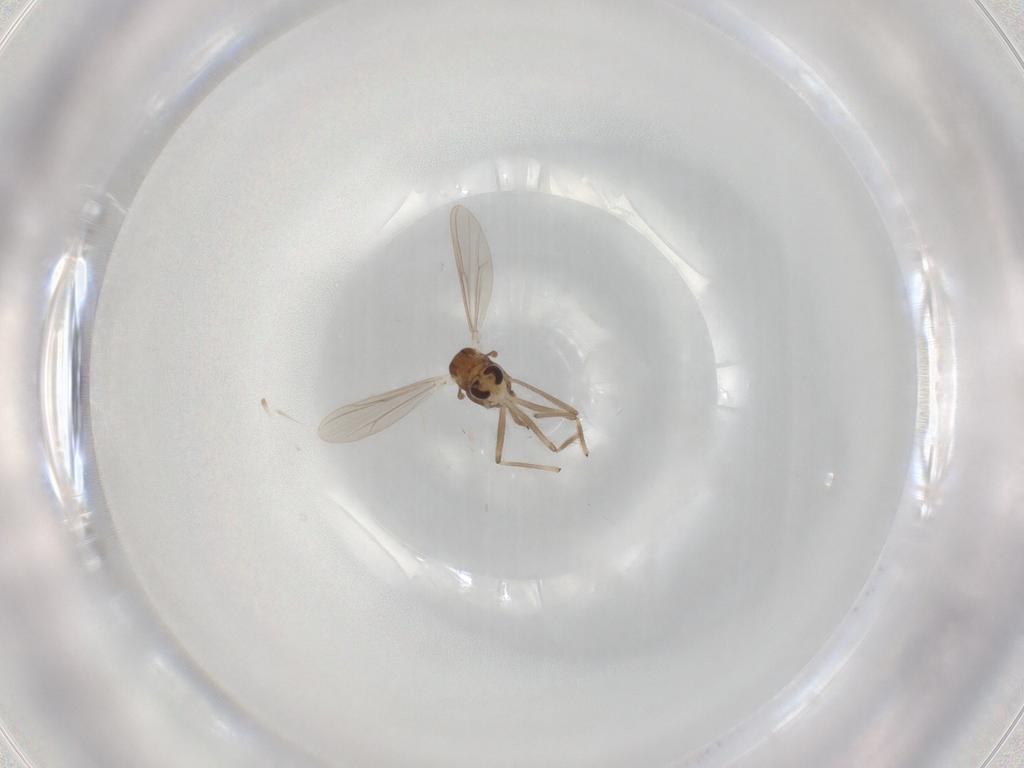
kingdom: Animalia
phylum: Arthropoda
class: Insecta
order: Diptera
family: Chironomidae
